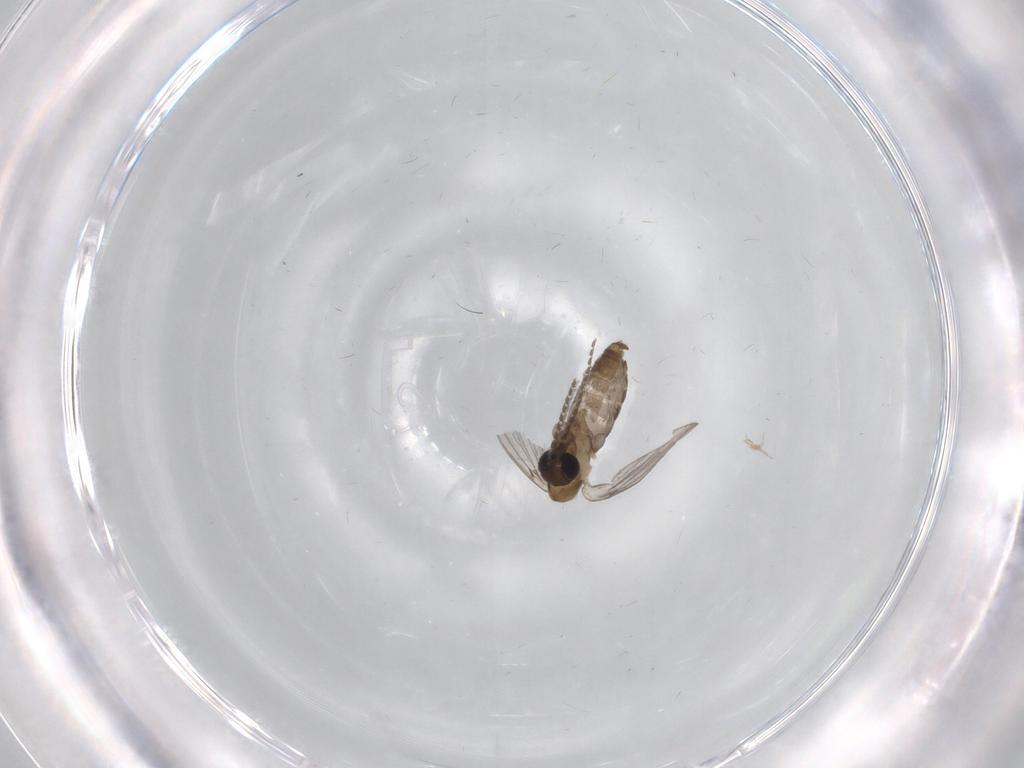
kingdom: Animalia
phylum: Arthropoda
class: Insecta
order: Diptera
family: Psychodidae
